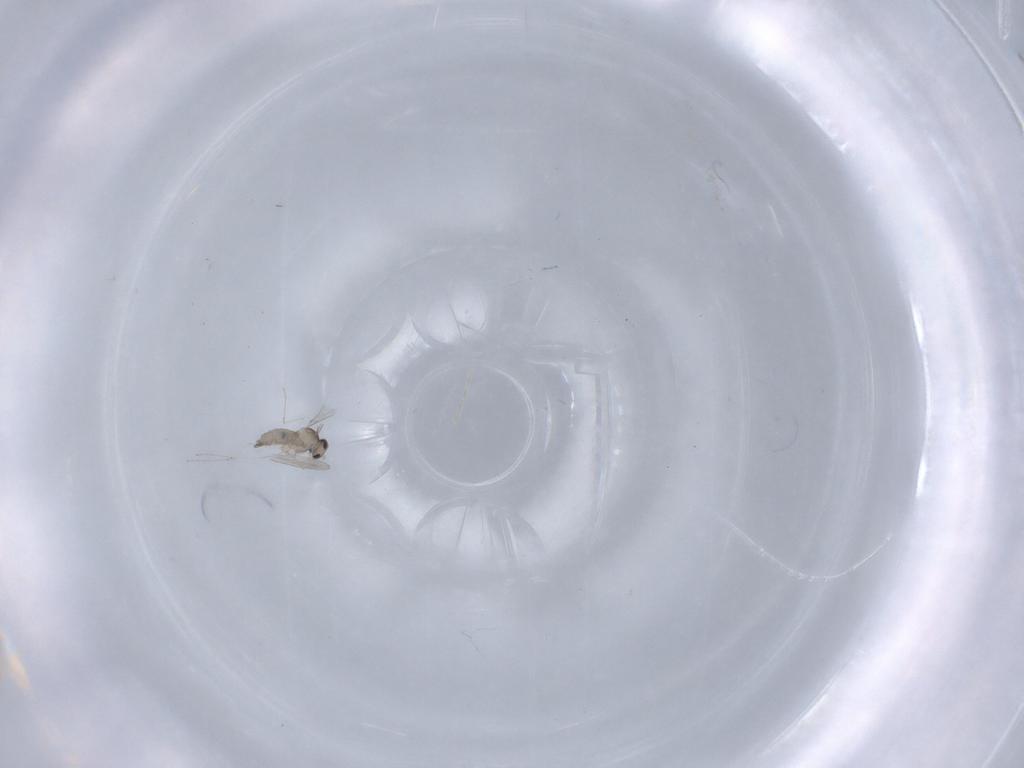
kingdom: Animalia
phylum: Arthropoda
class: Insecta
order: Diptera
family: Cecidomyiidae
